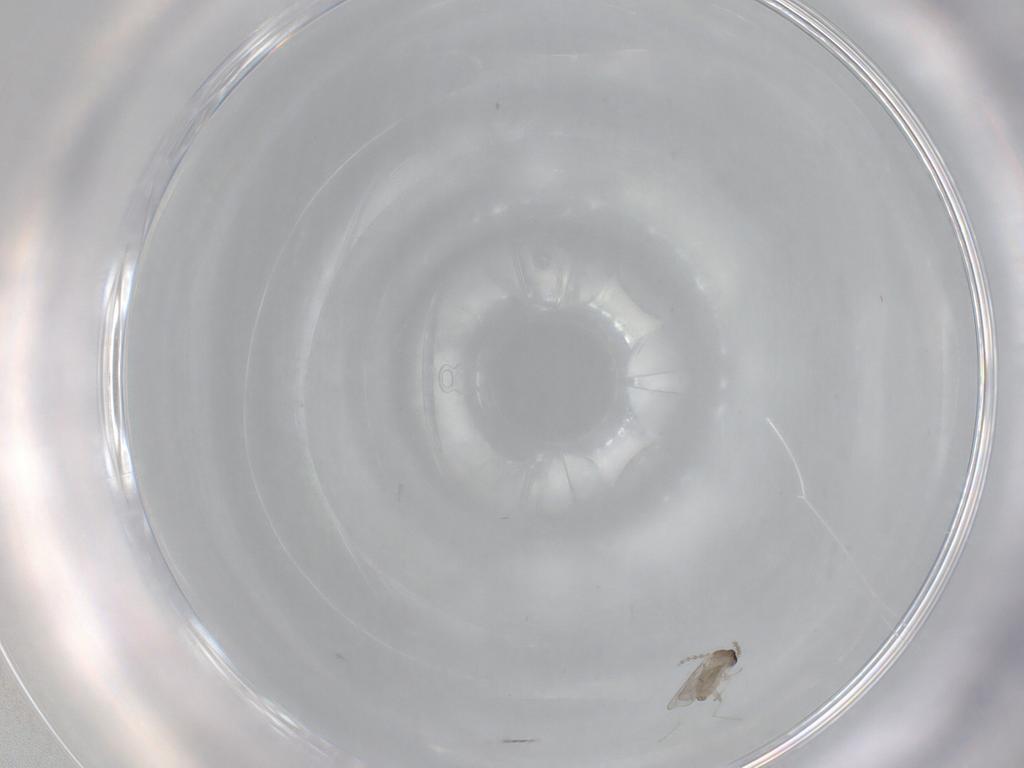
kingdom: Animalia
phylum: Arthropoda
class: Insecta
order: Diptera
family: Cecidomyiidae
